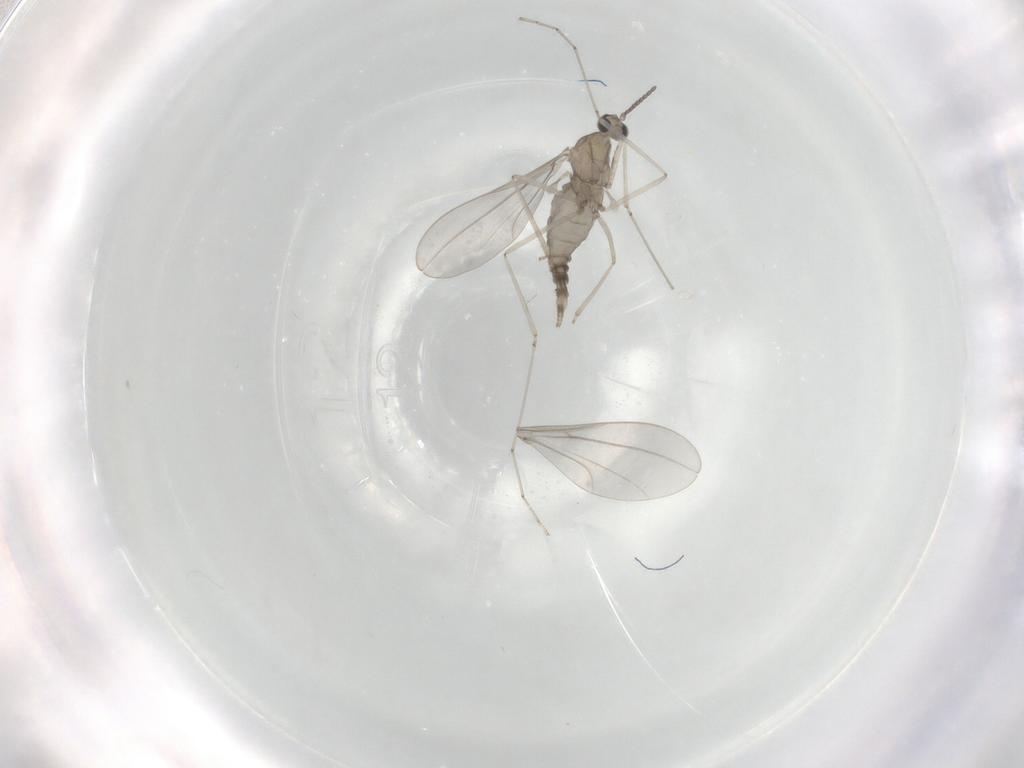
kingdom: Animalia
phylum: Arthropoda
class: Insecta
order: Diptera
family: Cecidomyiidae
